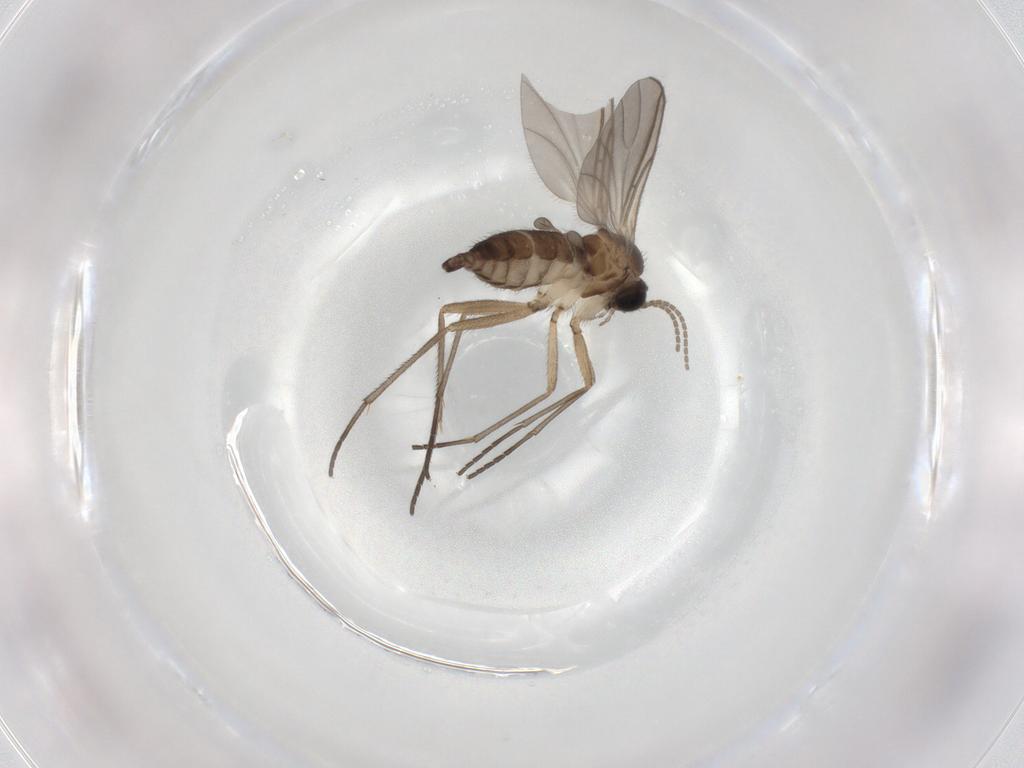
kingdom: Animalia
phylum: Arthropoda
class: Insecta
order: Diptera
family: Sciaridae
